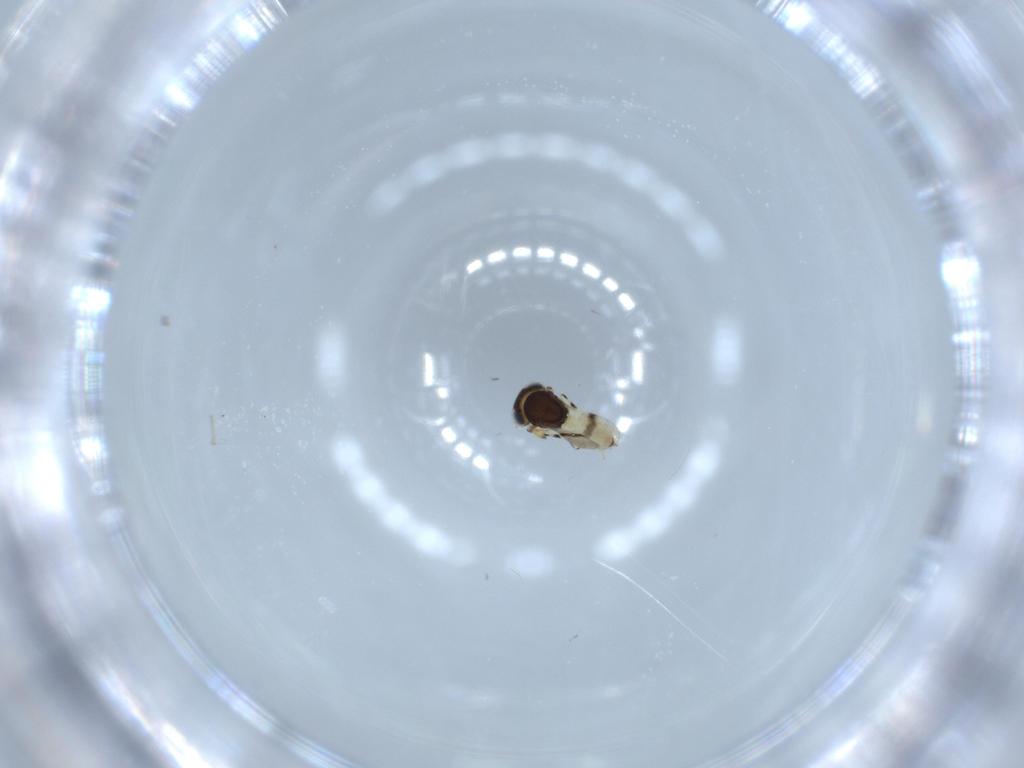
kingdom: Animalia
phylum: Arthropoda
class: Insecta
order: Hymenoptera
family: Scelionidae
